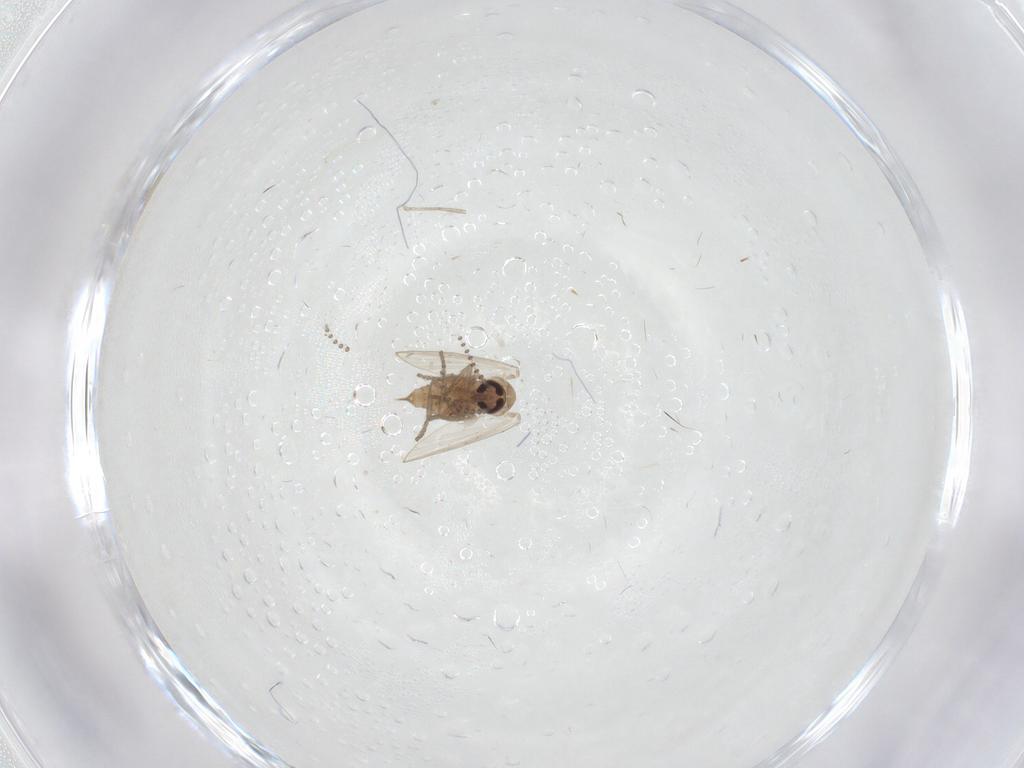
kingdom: Animalia
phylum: Arthropoda
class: Insecta
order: Diptera
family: Psychodidae
